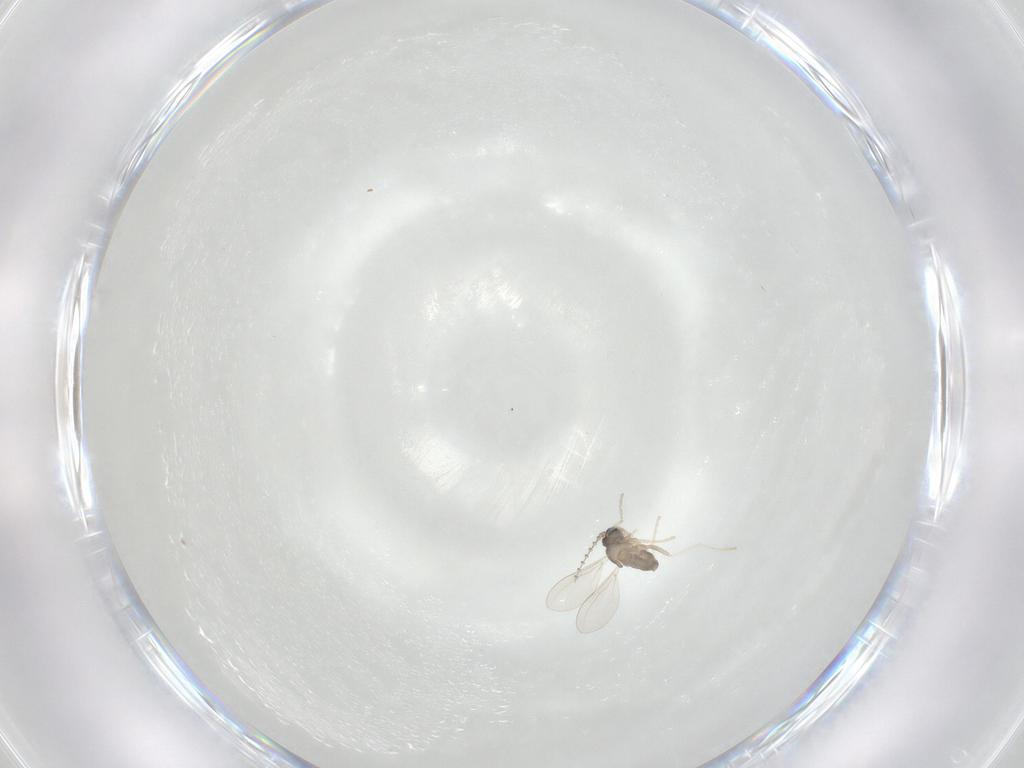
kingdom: Animalia
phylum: Arthropoda
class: Insecta
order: Diptera
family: Cecidomyiidae
